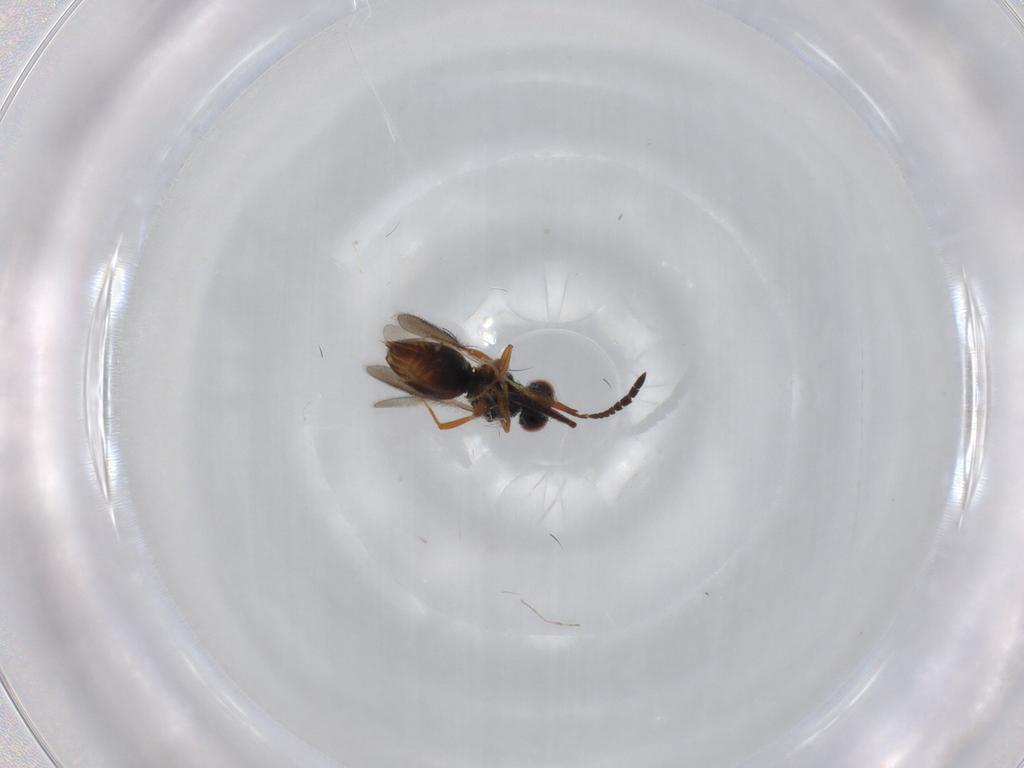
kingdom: Animalia
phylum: Arthropoda
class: Insecta
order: Hymenoptera
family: Ceraphronidae
